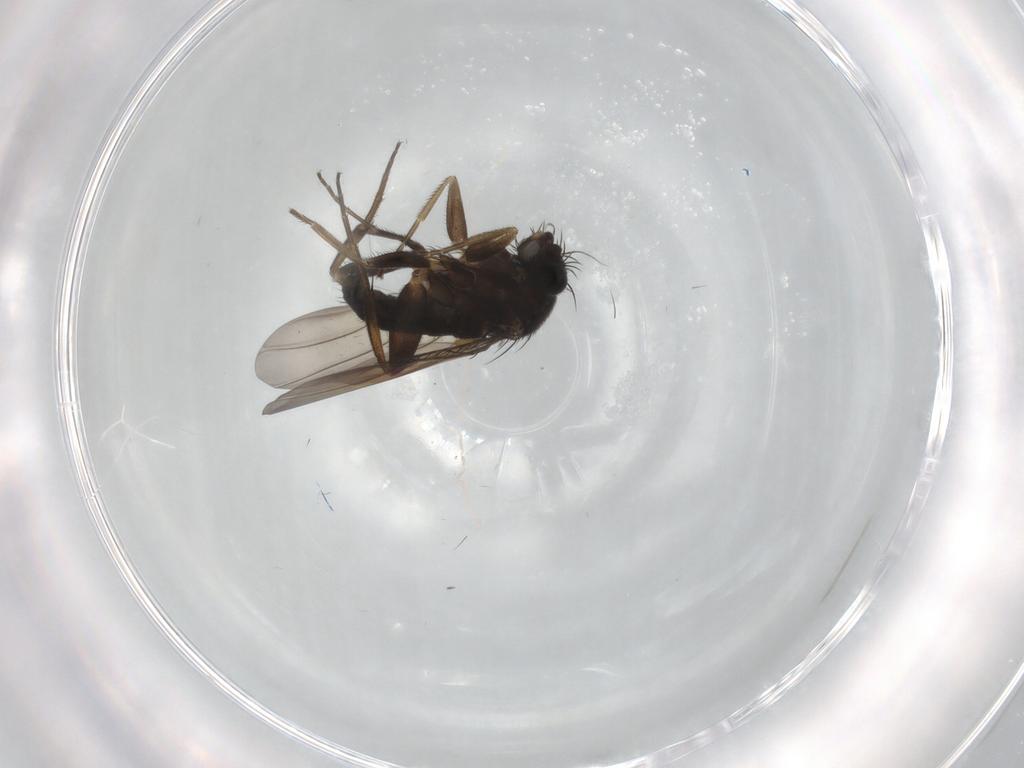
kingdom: Animalia
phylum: Arthropoda
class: Insecta
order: Diptera
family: Phoridae
